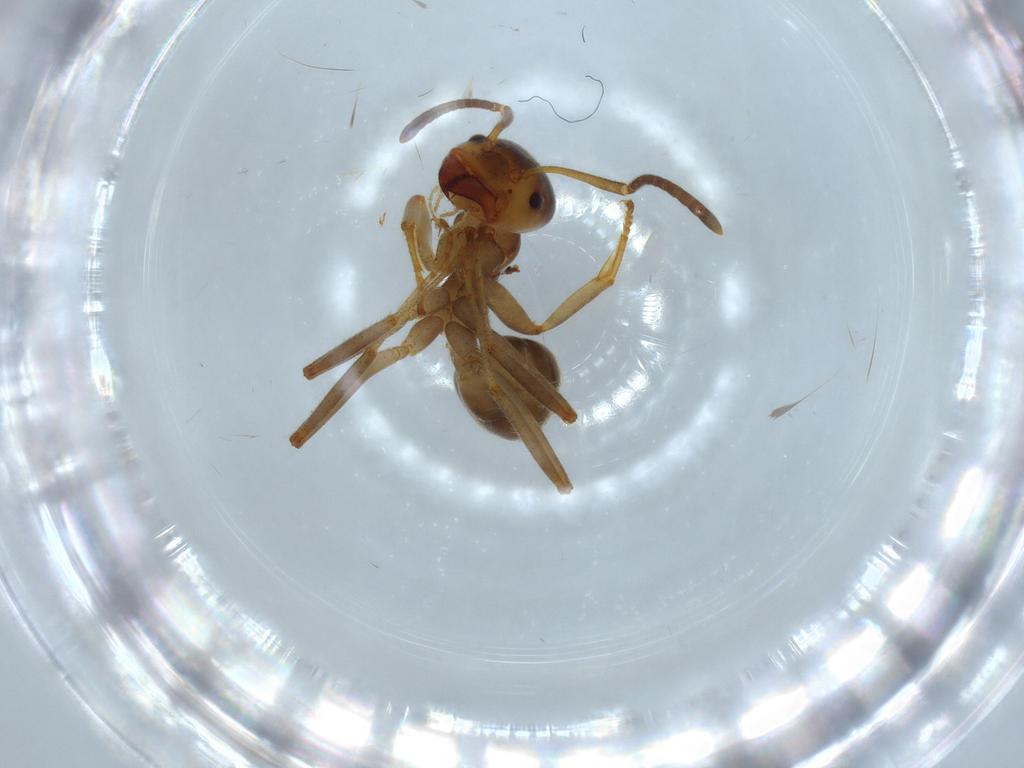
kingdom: Animalia
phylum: Arthropoda
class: Insecta
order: Hymenoptera
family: Formicidae
